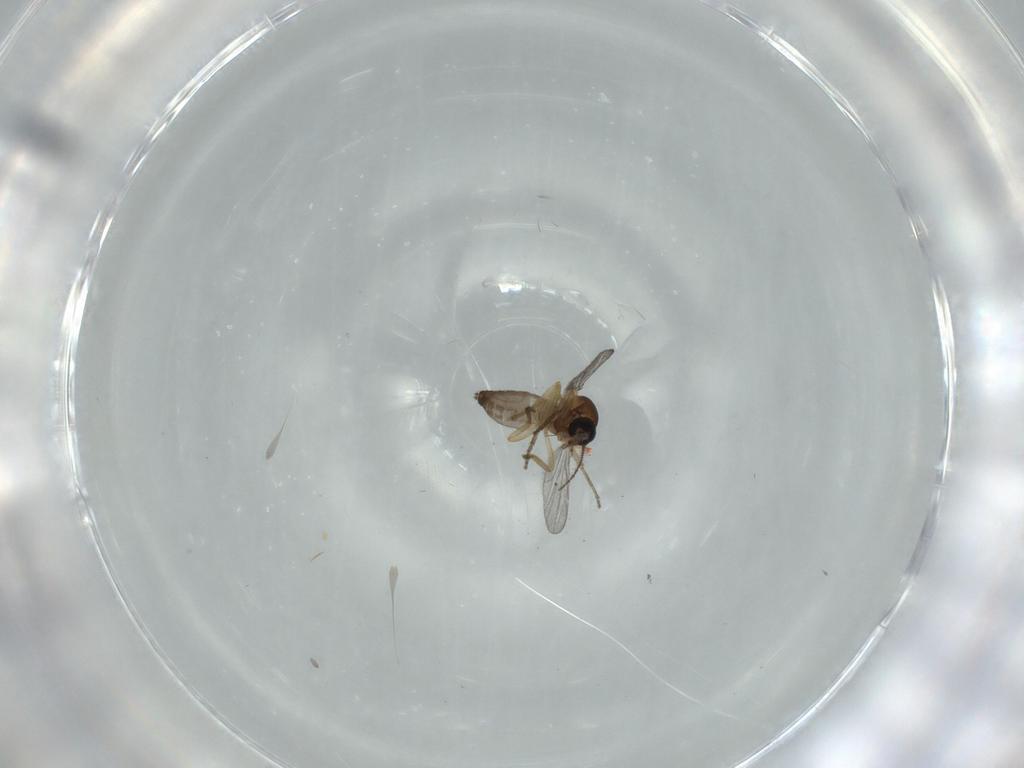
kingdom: Animalia
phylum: Arthropoda
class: Insecta
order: Diptera
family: Ceratopogonidae
